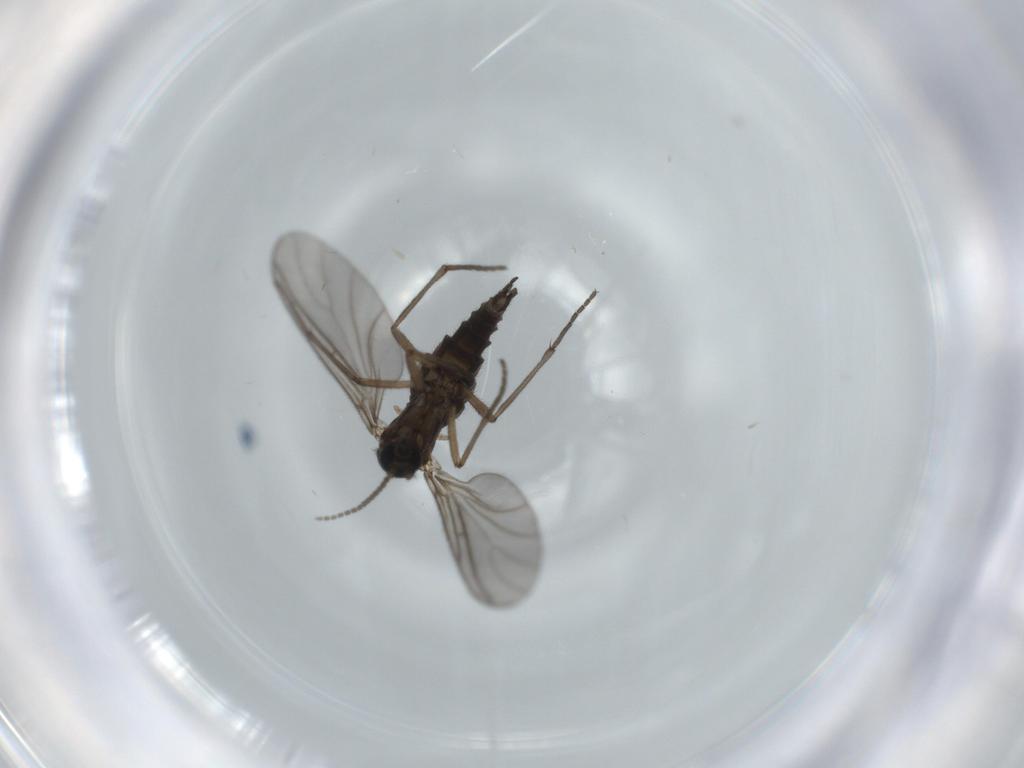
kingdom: Animalia
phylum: Arthropoda
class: Insecta
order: Diptera
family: Sciaridae
